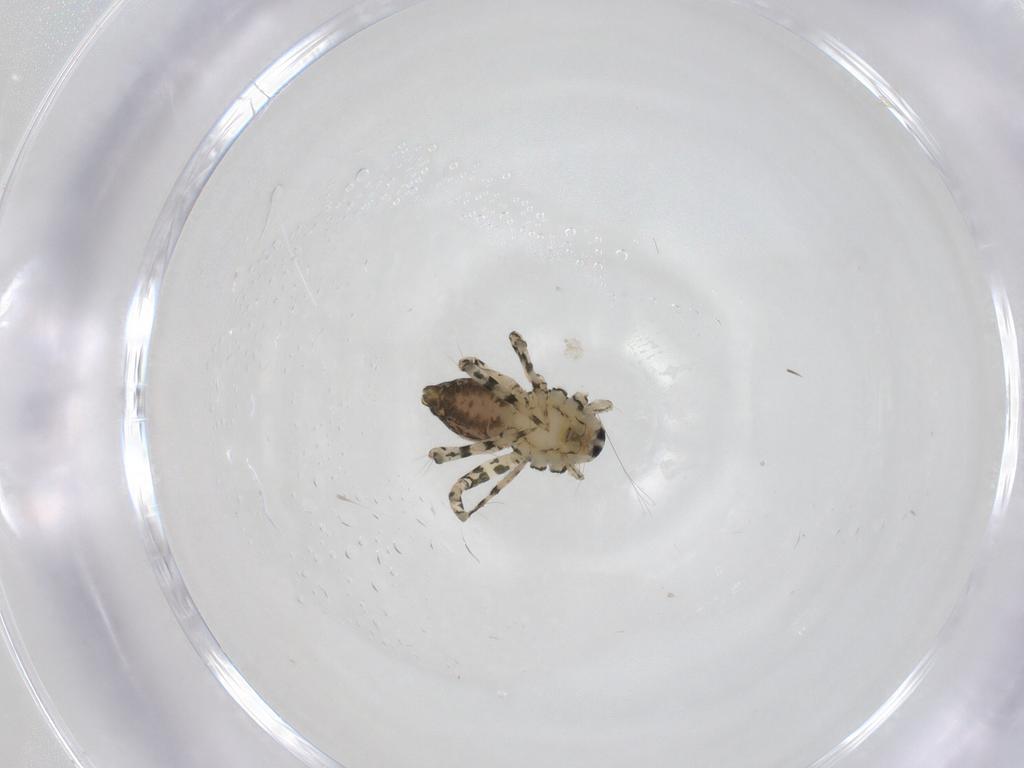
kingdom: Animalia
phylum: Arthropoda
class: Arachnida
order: Araneae
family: Oxyopidae
